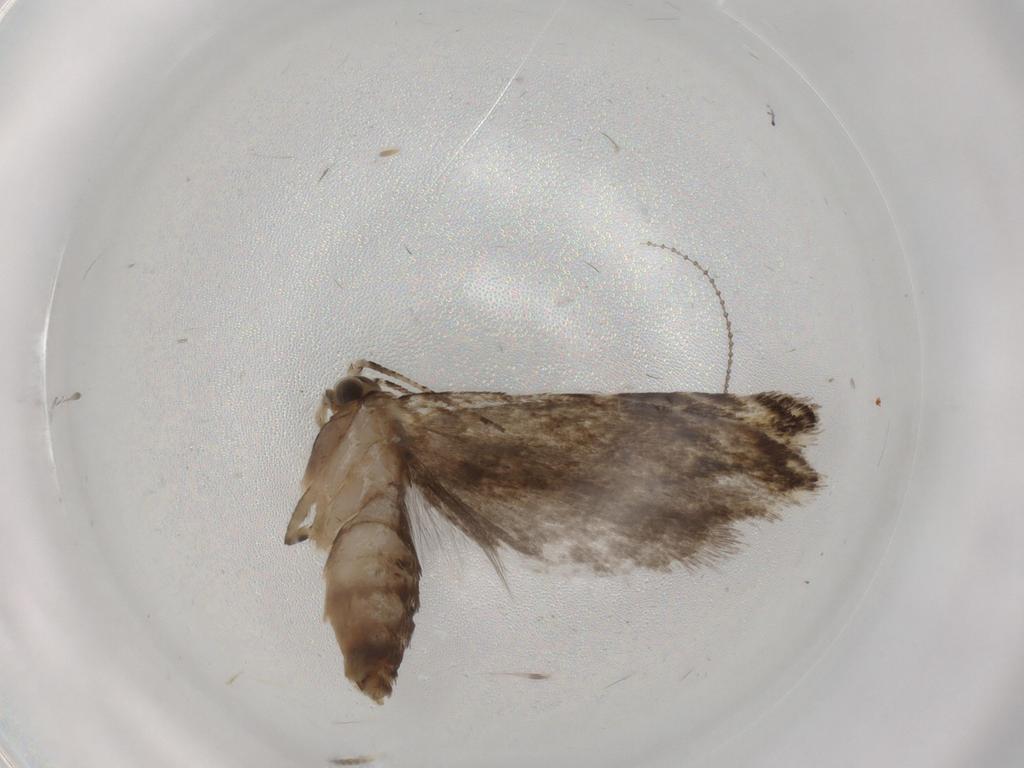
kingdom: Animalia
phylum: Arthropoda
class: Insecta
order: Lepidoptera
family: Tineidae
